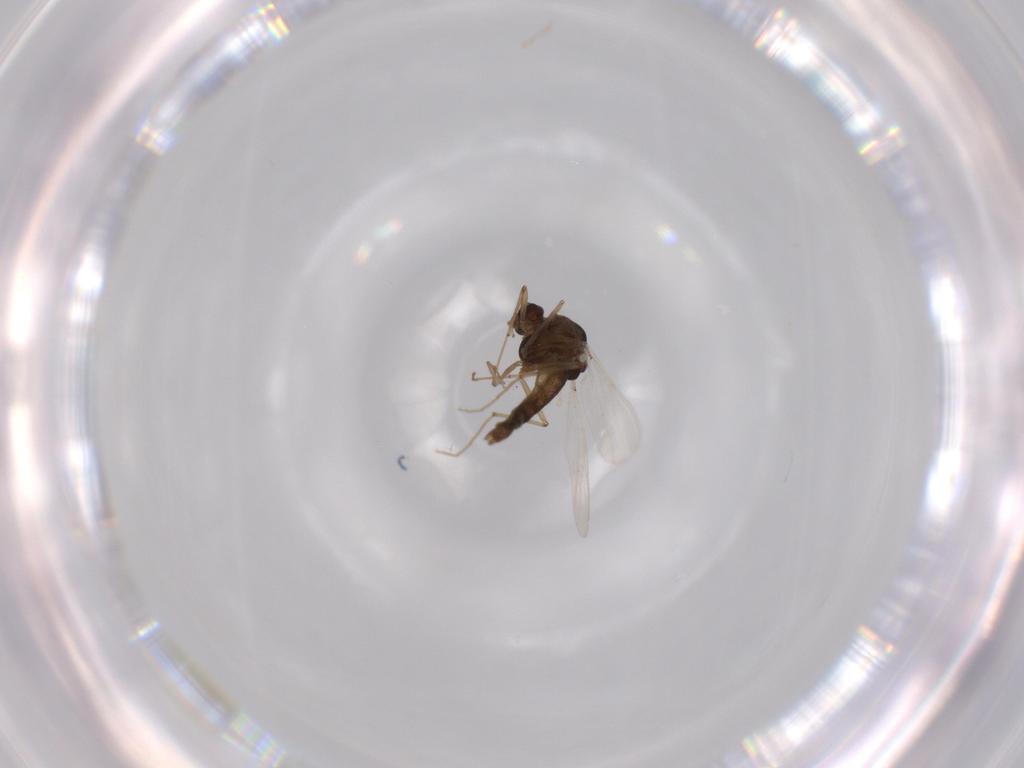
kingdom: Animalia
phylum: Arthropoda
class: Insecta
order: Diptera
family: Chironomidae
